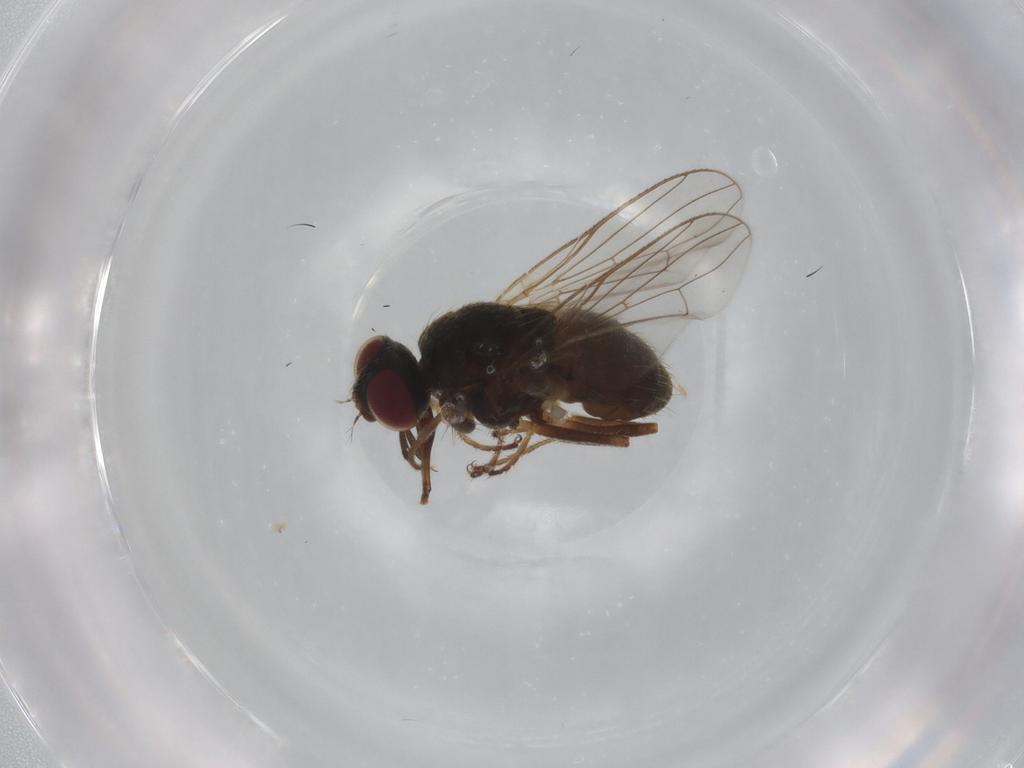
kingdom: Animalia
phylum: Arthropoda
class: Insecta
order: Diptera
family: Muscidae
